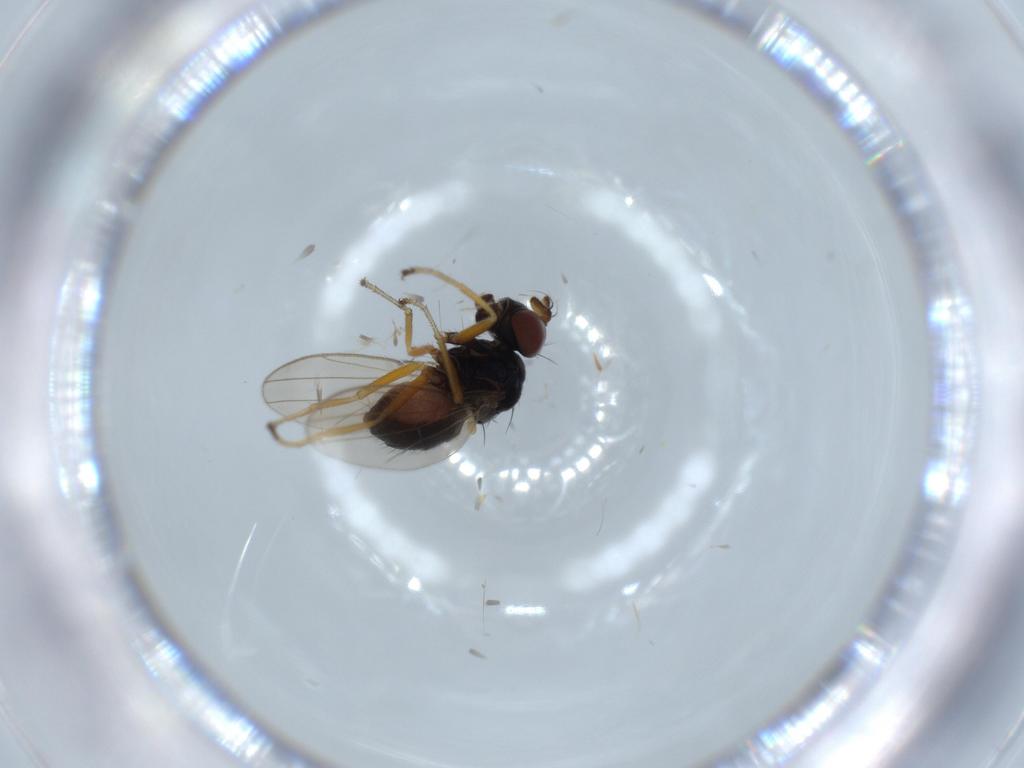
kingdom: Animalia
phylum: Arthropoda
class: Insecta
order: Diptera
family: Ephydridae
